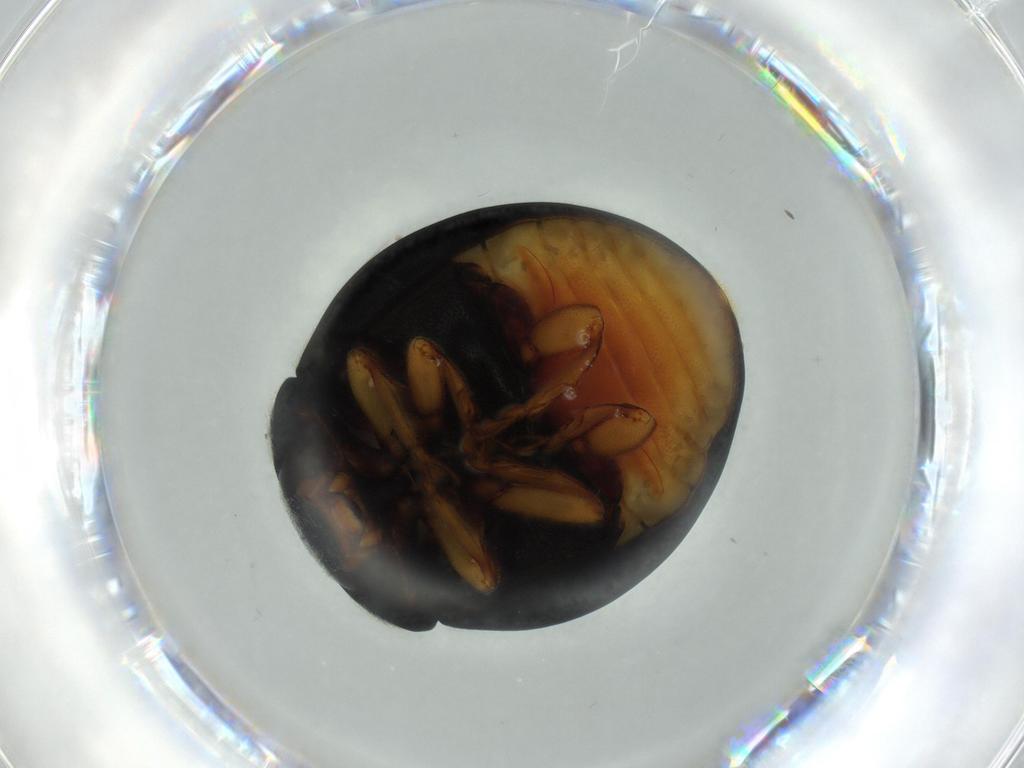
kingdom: Animalia
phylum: Arthropoda
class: Insecta
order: Coleoptera
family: Coccinellidae
